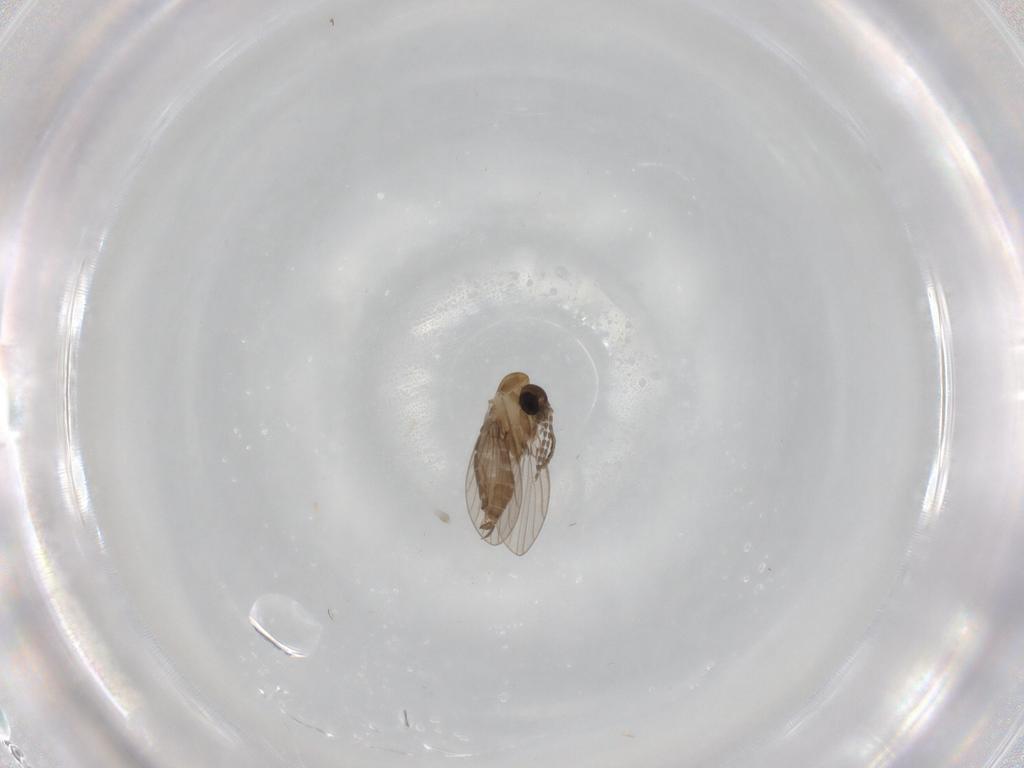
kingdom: Animalia
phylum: Arthropoda
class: Insecta
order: Diptera
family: Psychodidae
